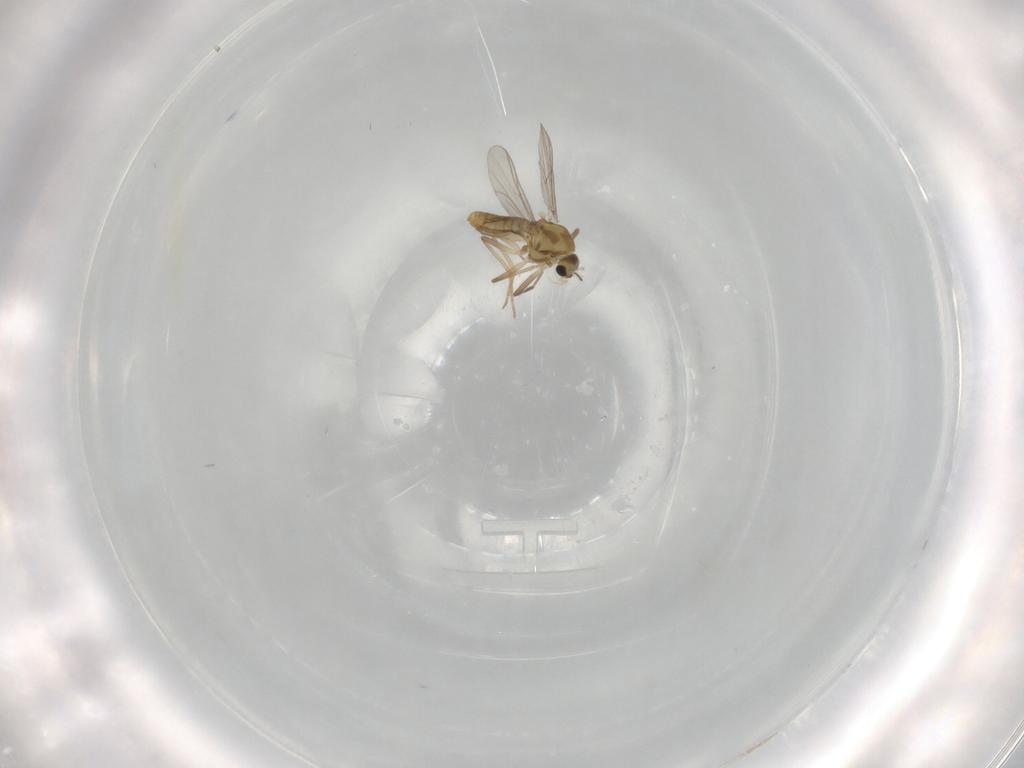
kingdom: Animalia
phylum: Arthropoda
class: Insecta
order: Diptera
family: Chironomidae
